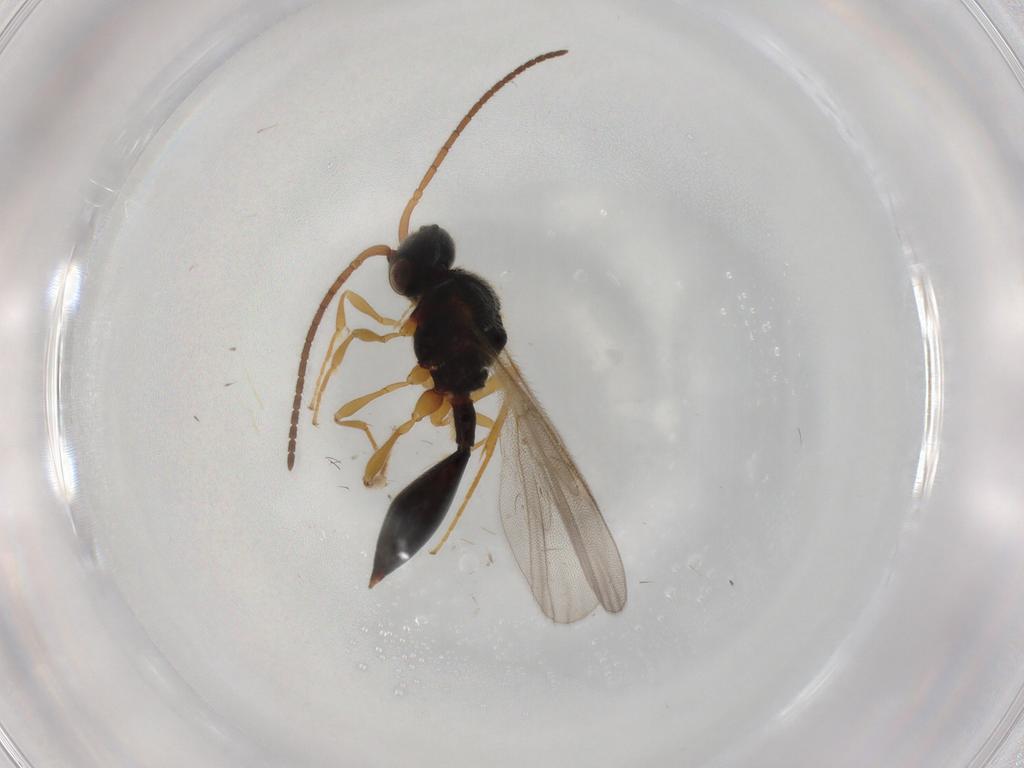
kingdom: Animalia
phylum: Arthropoda
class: Insecta
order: Hymenoptera
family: Diapriidae
